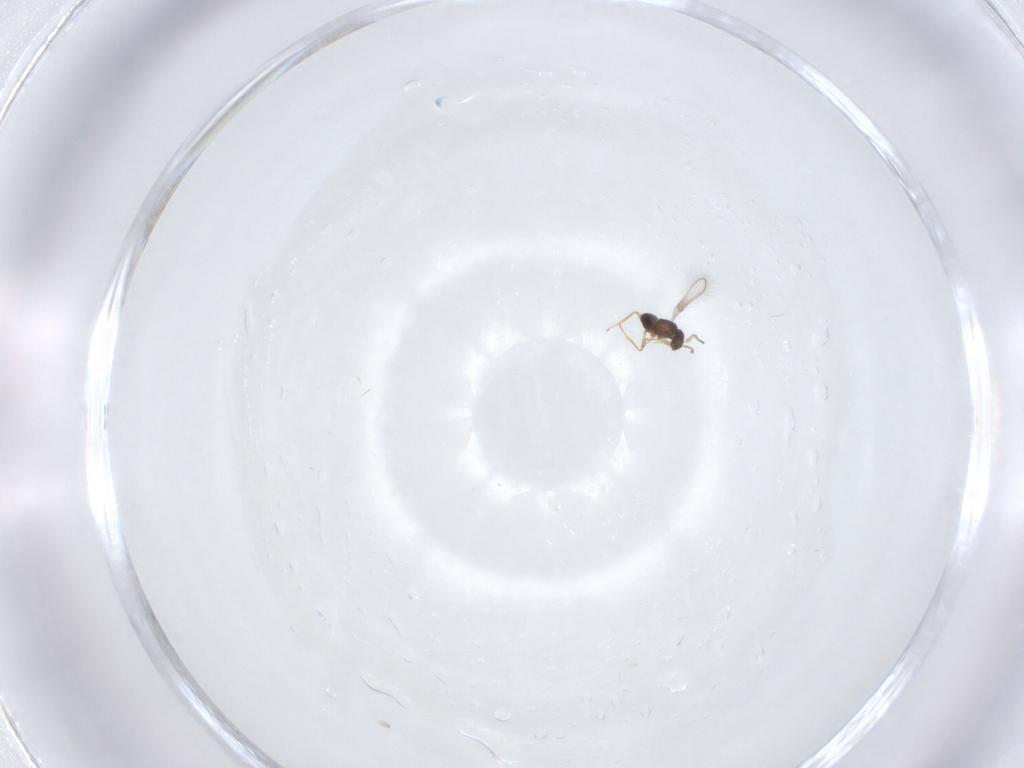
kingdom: Animalia
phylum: Arthropoda
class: Insecta
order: Hymenoptera
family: Mymaridae
